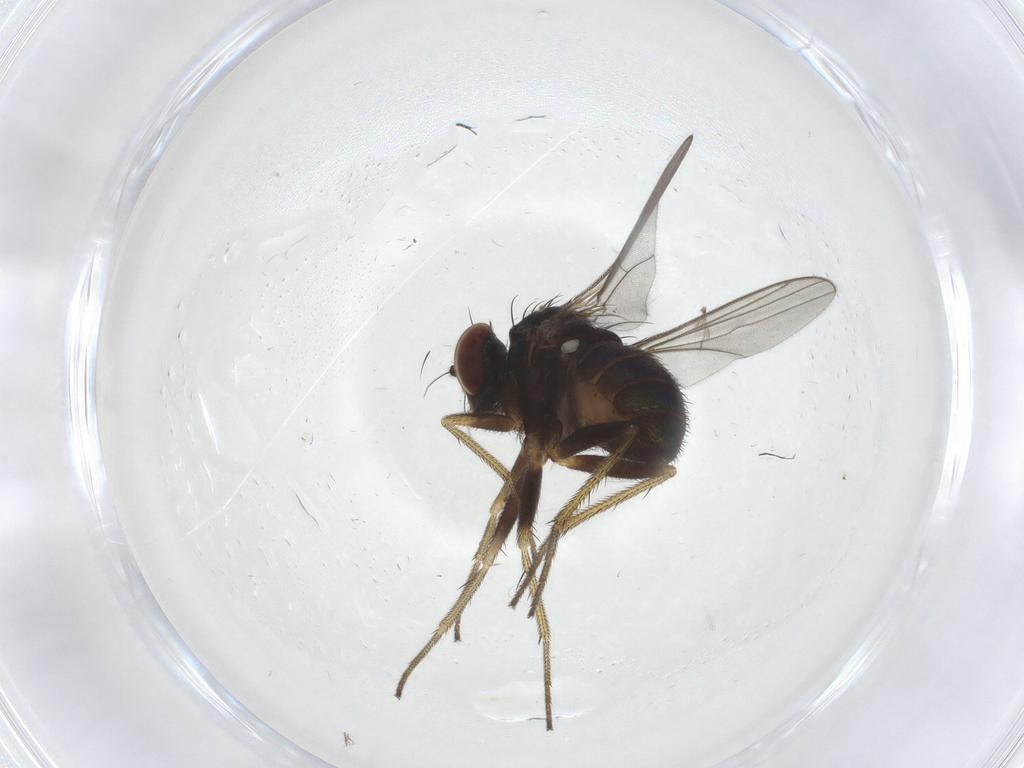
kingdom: Animalia
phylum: Arthropoda
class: Insecta
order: Diptera
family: Dolichopodidae
